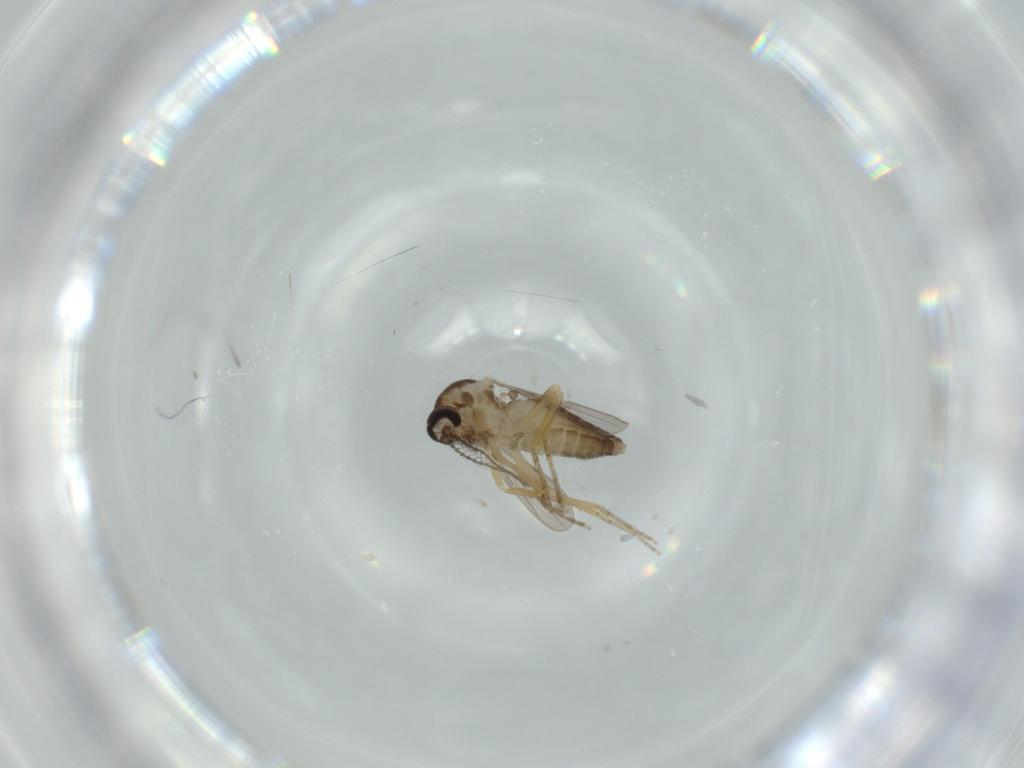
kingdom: Animalia
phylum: Arthropoda
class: Insecta
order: Diptera
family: Ceratopogonidae
